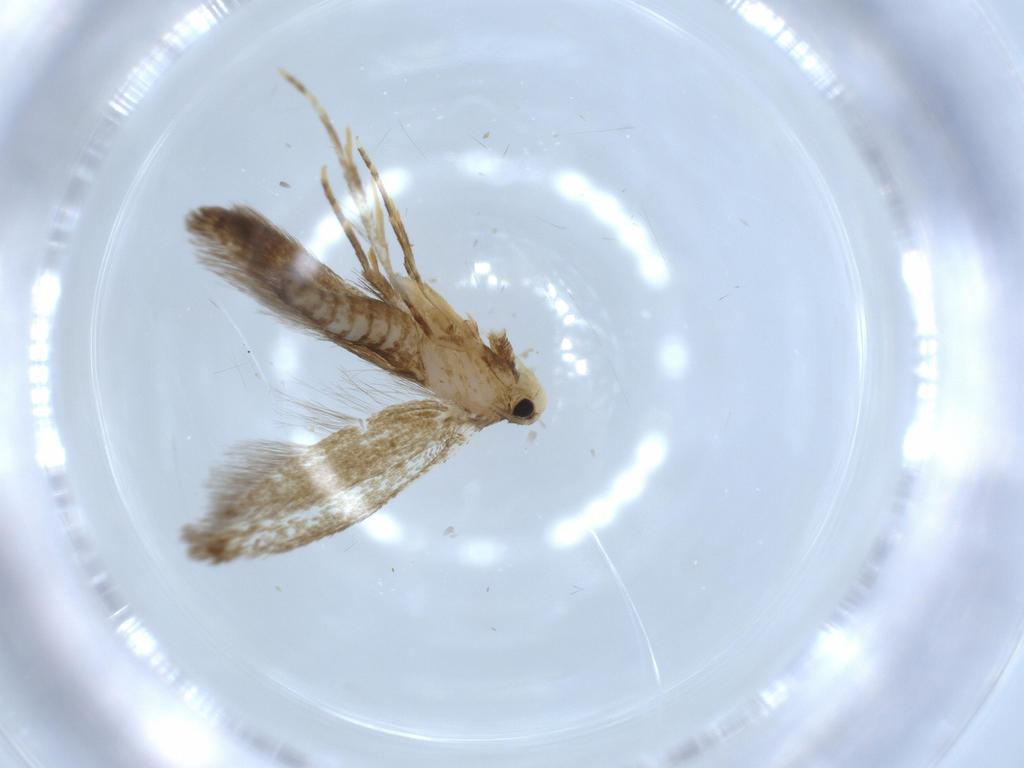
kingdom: Animalia
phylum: Arthropoda
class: Insecta
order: Lepidoptera
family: Tineidae
